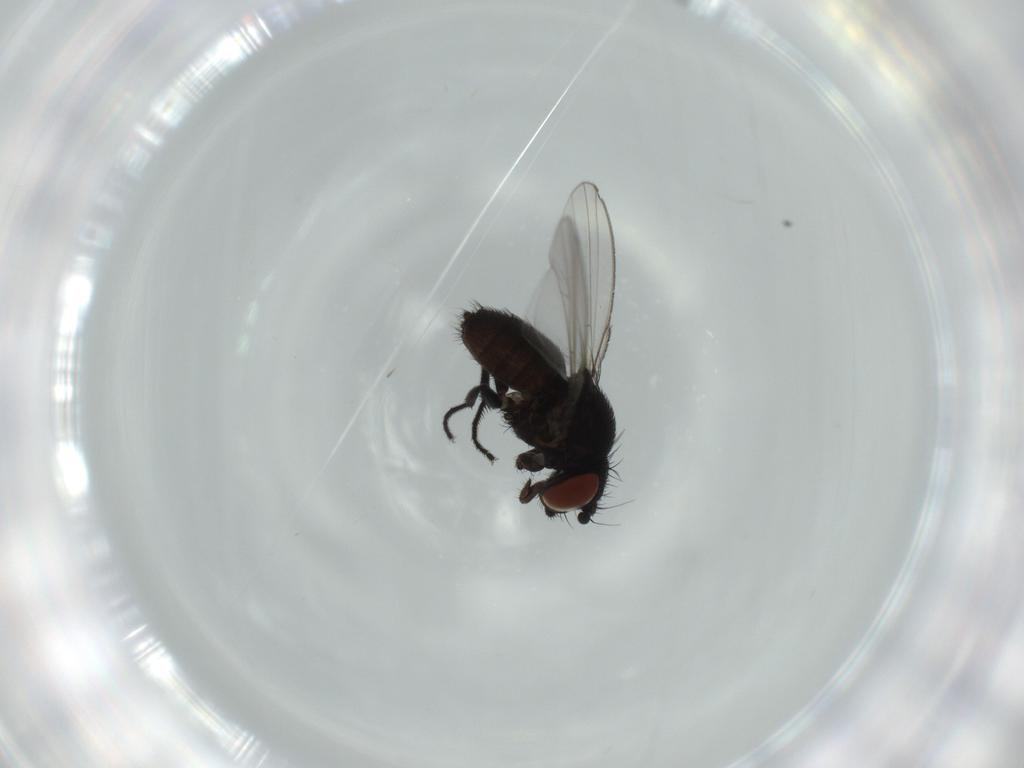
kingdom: Animalia
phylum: Arthropoda
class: Insecta
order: Diptera
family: Milichiidae
